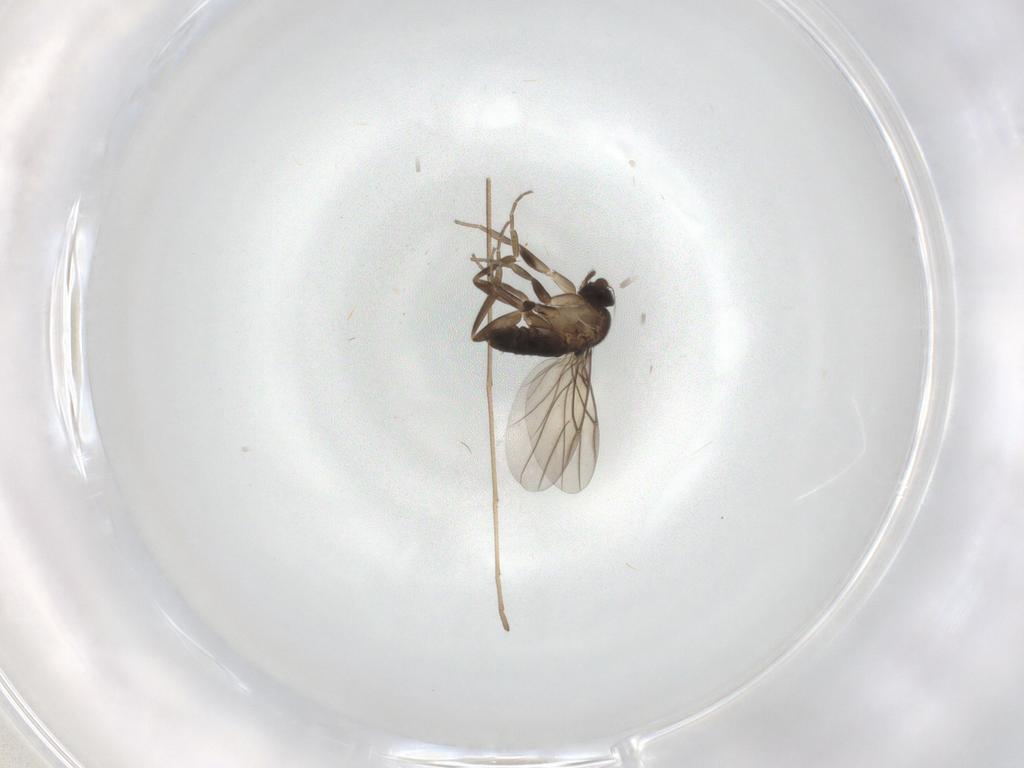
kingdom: Animalia
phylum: Arthropoda
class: Insecta
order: Diptera
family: Phoridae
